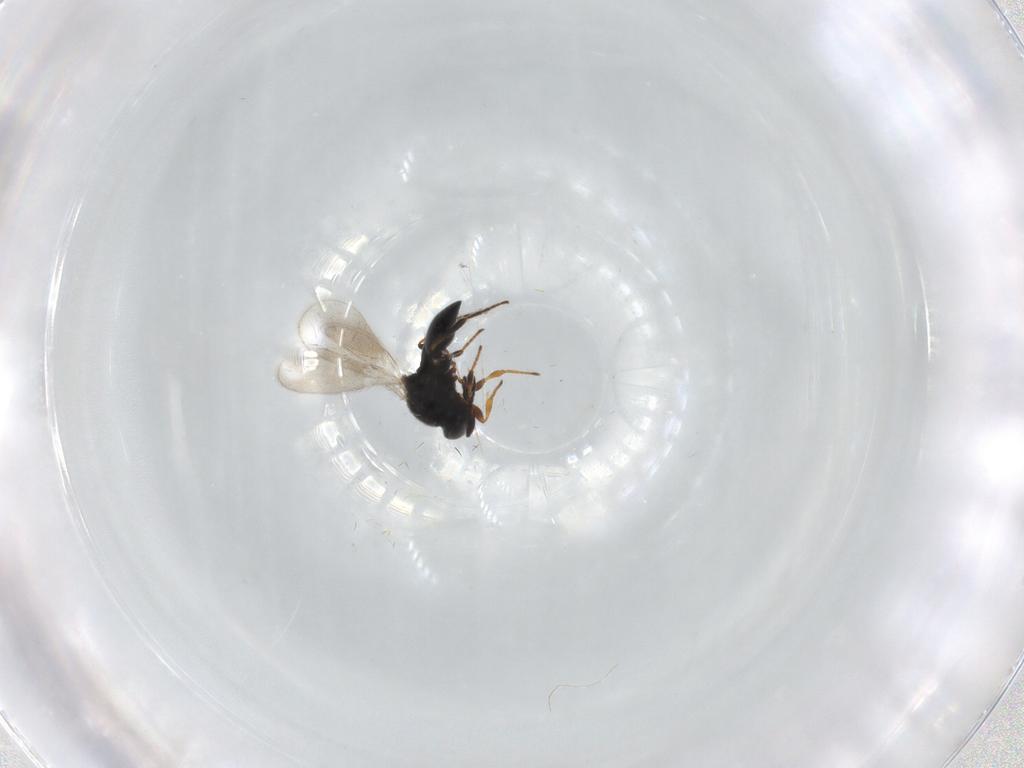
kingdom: Animalia
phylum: Arthropoda
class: Insecta
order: Hymenoptera
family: Platygastridae
